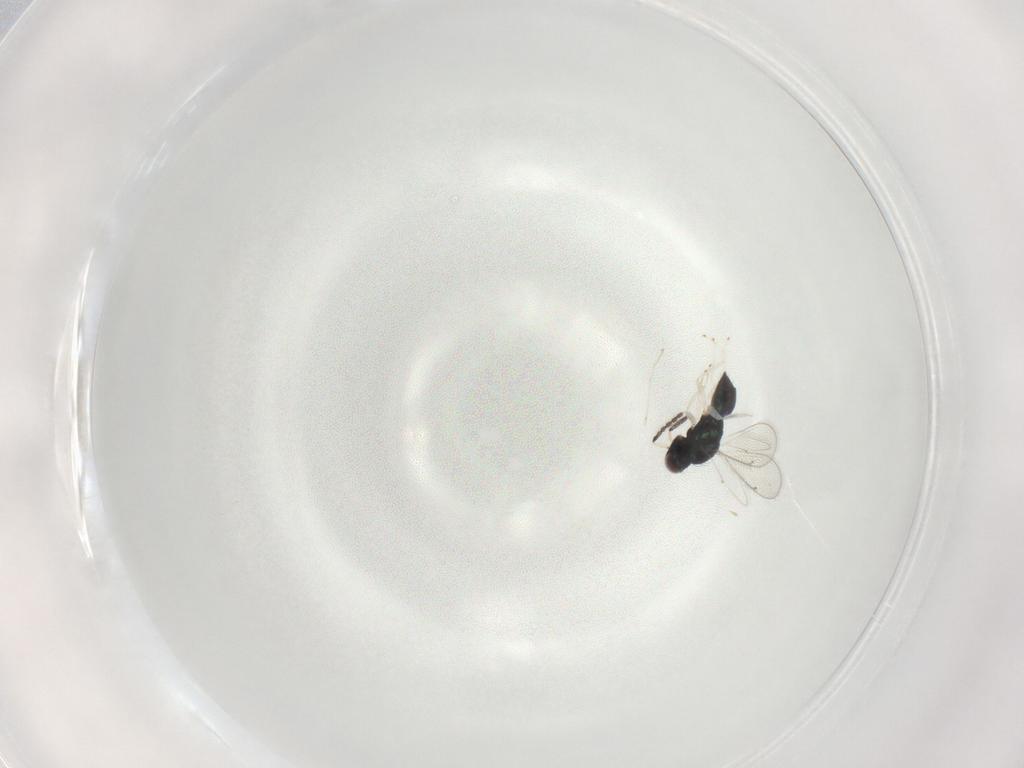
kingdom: Animalia
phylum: Arthropoda
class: Insecta
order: Hymenoptera
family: Eulophidae
